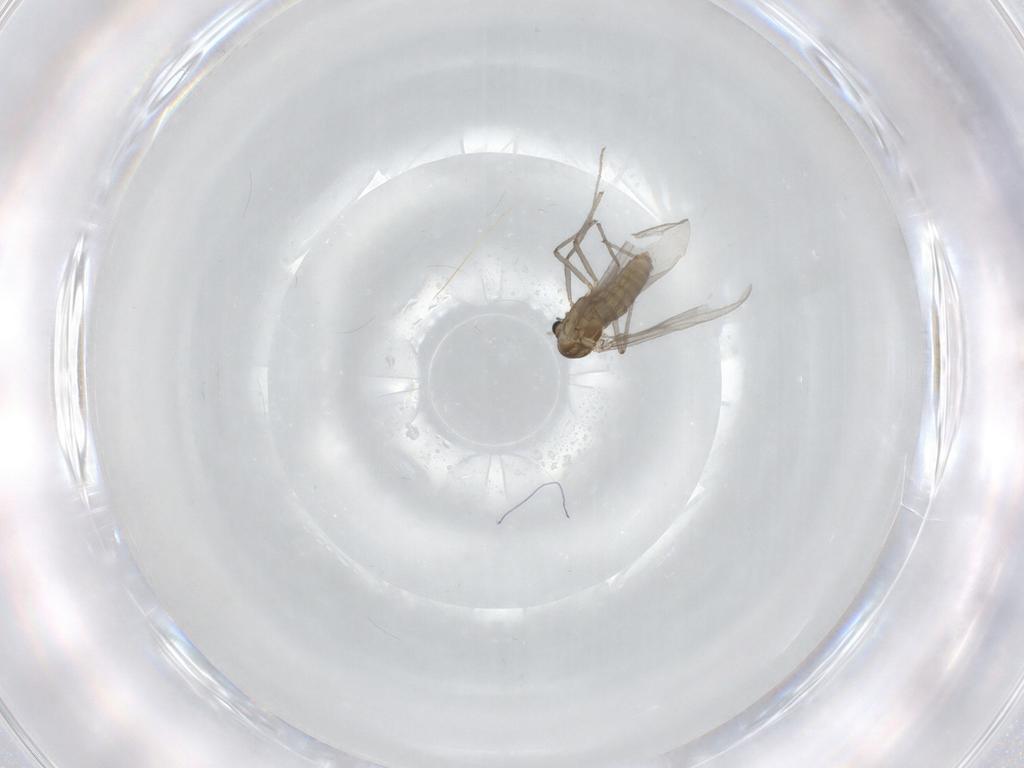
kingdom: Animalia
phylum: Arthropoda
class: Insecta
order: Diptera
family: Chironomidae
